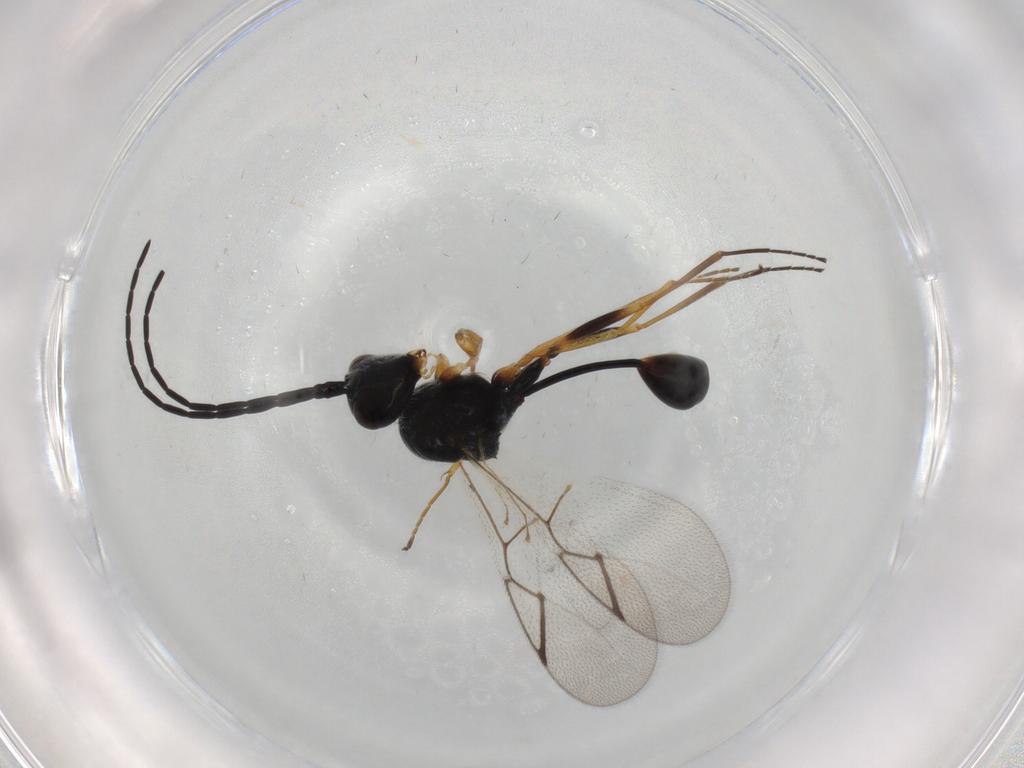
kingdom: Animalia
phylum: Arthropoda
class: Insecta
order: Hymenoptera
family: Figitidae
